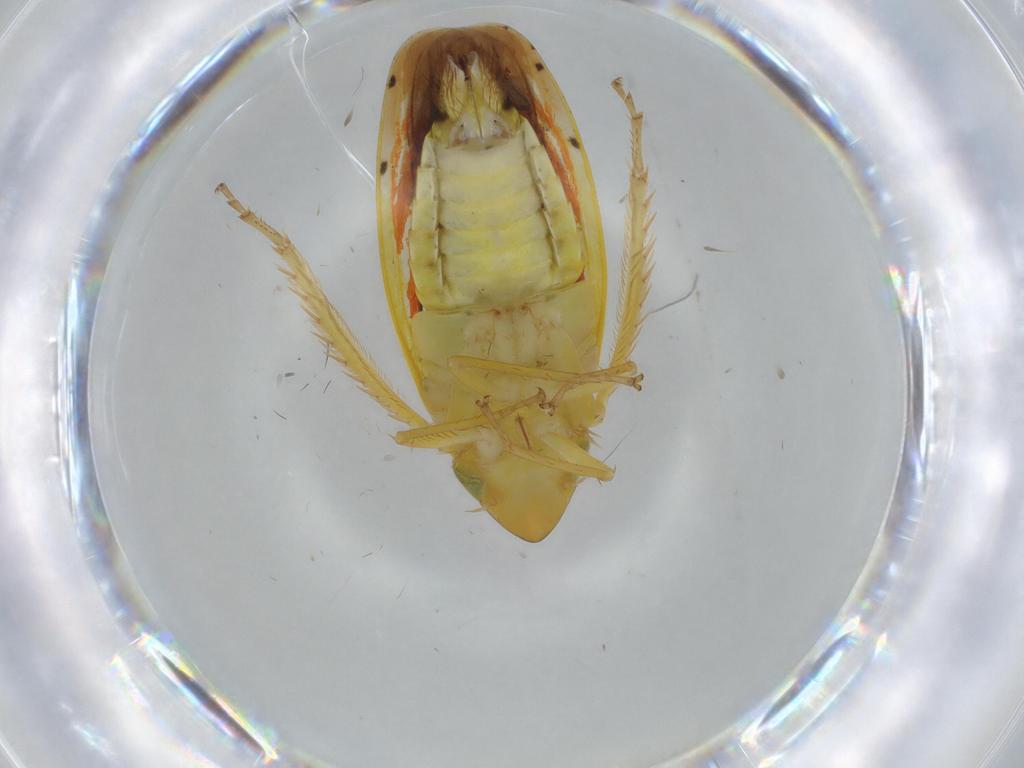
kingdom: Animalia
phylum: Arthropoda
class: Insecta
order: Hemiptera
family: Cicadellidae
